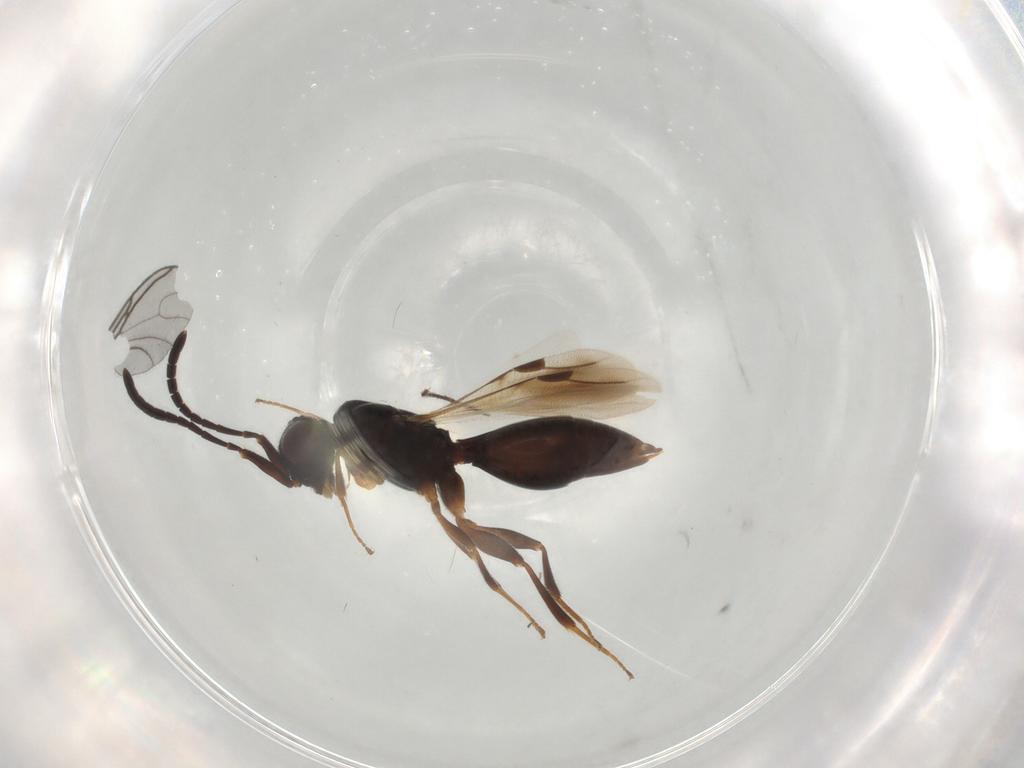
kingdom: Animalia
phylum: Arthropoda
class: Insecta
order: Hymenoptera
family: Megaspilidae
